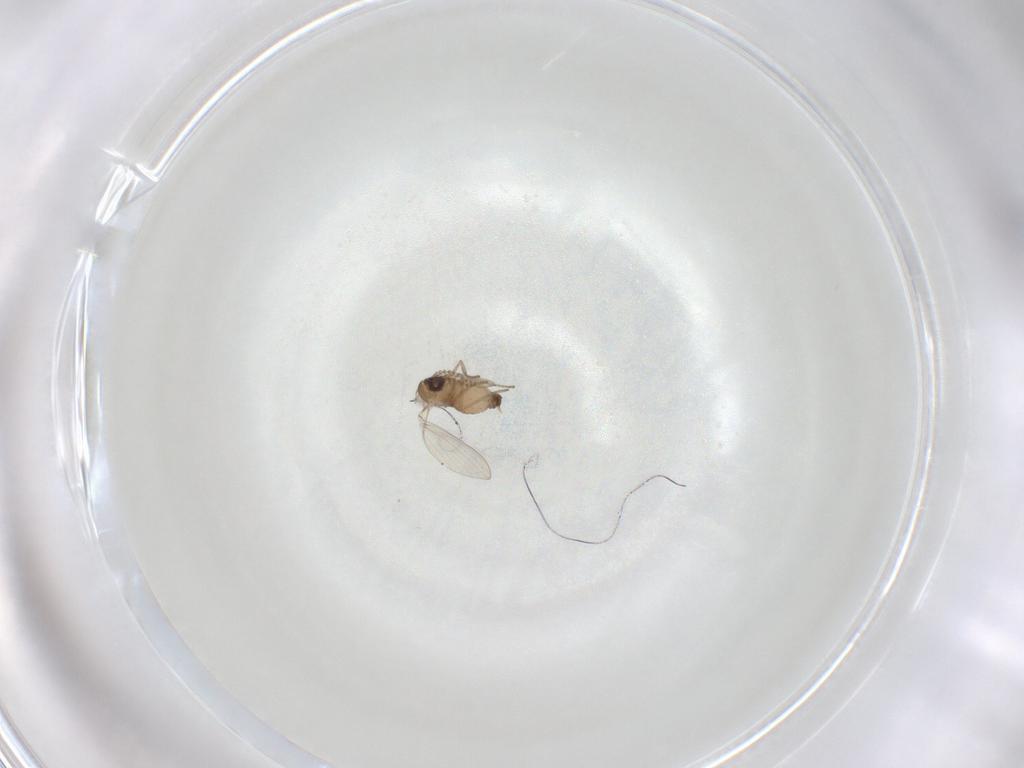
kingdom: Animalia
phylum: Arthropoda
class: Insecta
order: Diptera
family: Psychodidae
